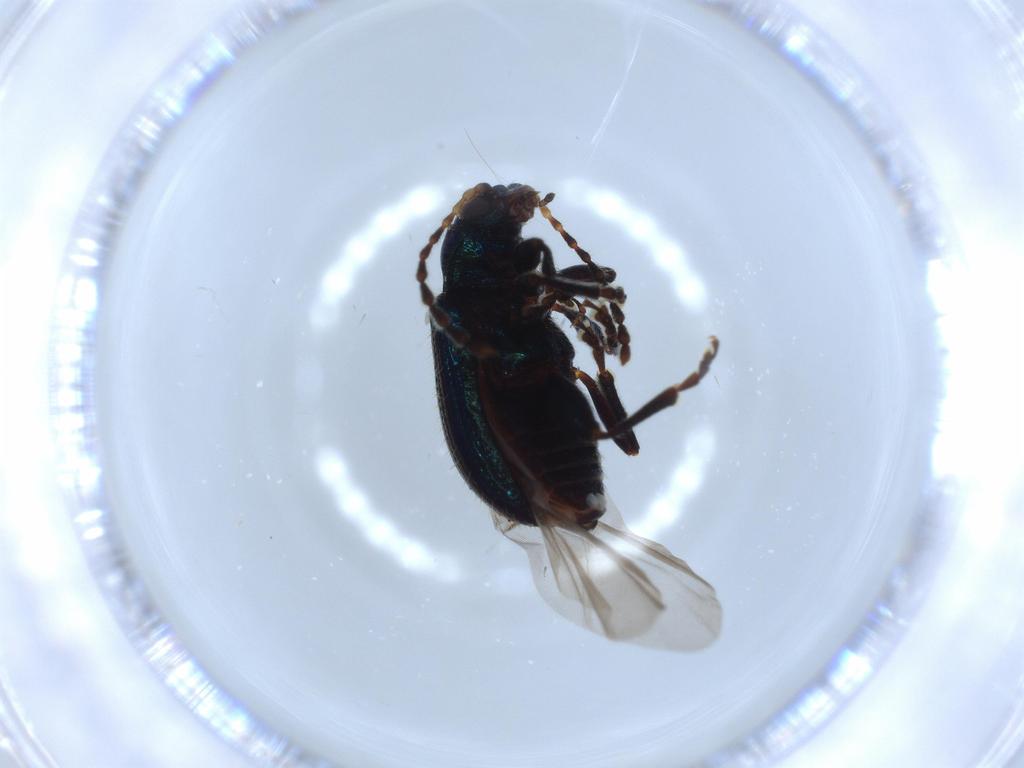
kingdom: Animalia
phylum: Arthropoda
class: Insecta
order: Coleoptera
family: Chrysomelidae
